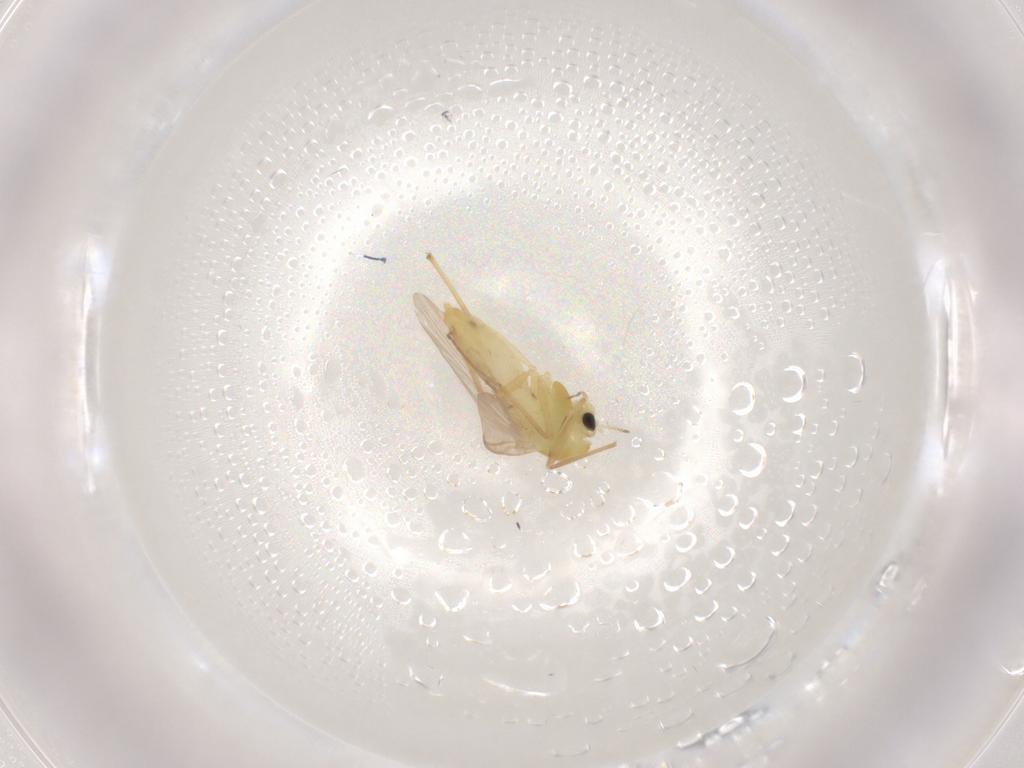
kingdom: Animalia
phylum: Arthropoda
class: Insecta
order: Diptera
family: Chironomidae
